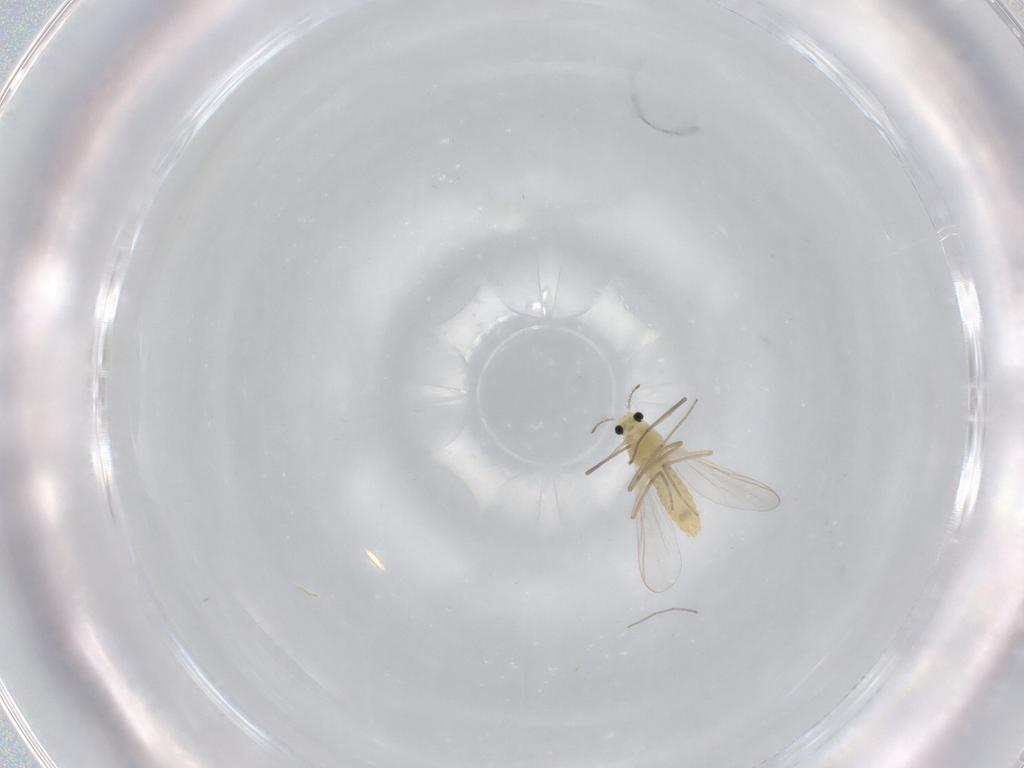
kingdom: Animalia
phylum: Arthropoda
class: Insecta
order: Diptera
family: Chironomidae
